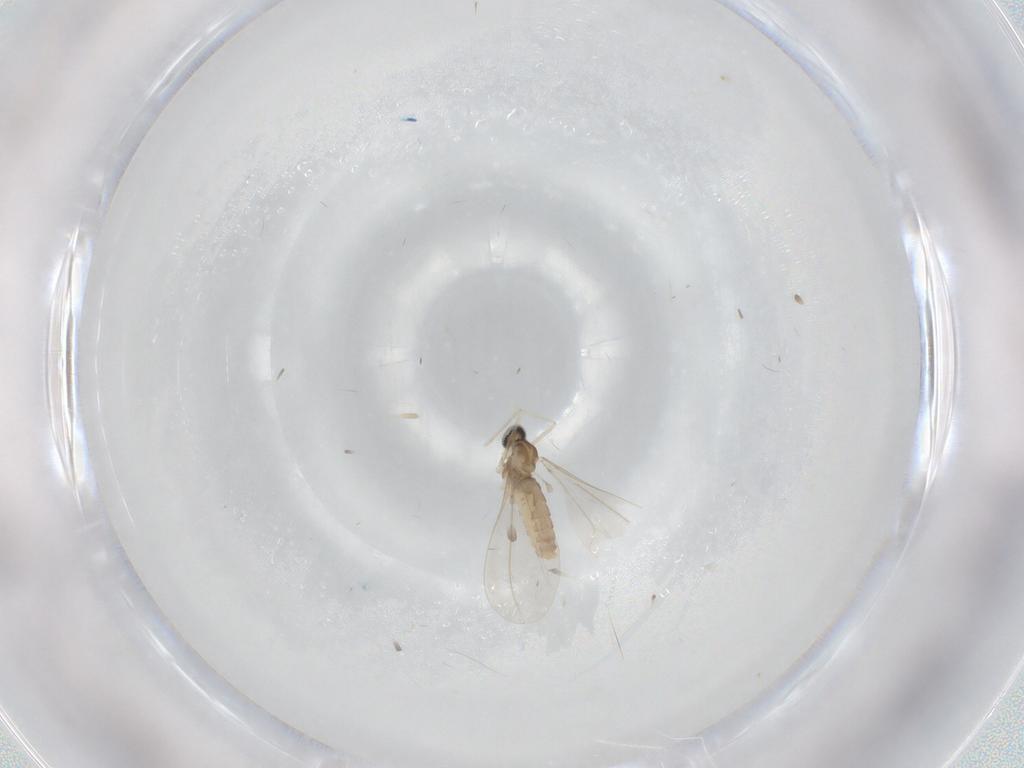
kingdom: Animalia
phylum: Arthropoda
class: Insecta
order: Diptera
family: Cecidomyiidae
